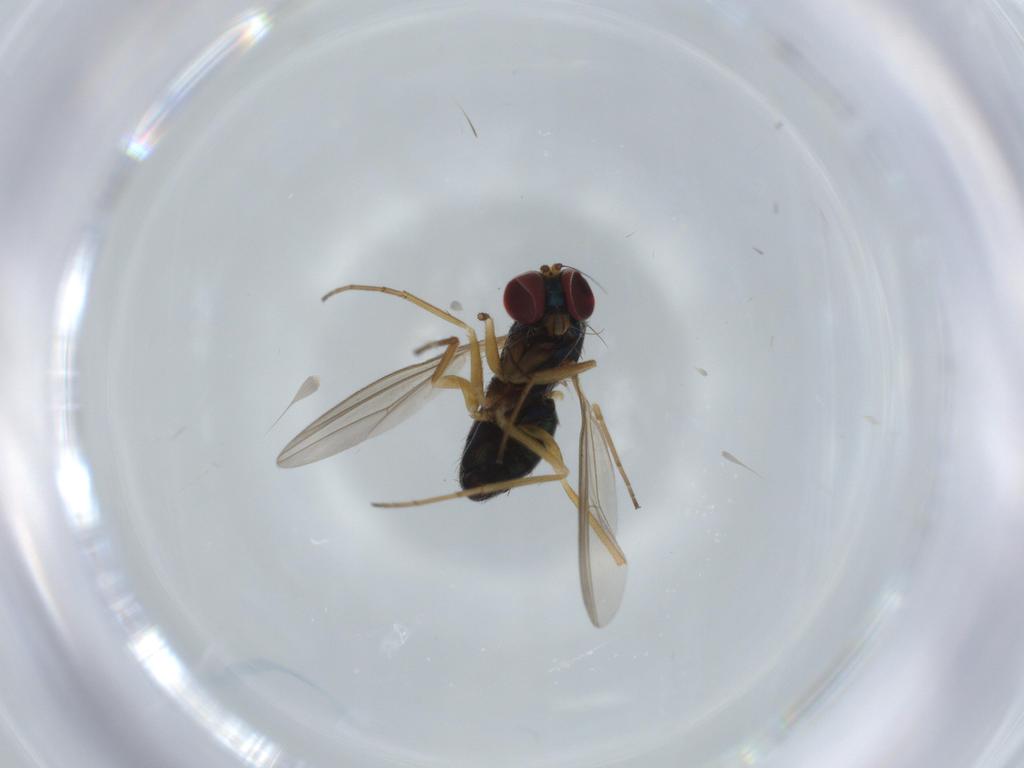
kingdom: Animalia
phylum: Arthropoda
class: Insecta
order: Diptera
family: Dolichopodidae
